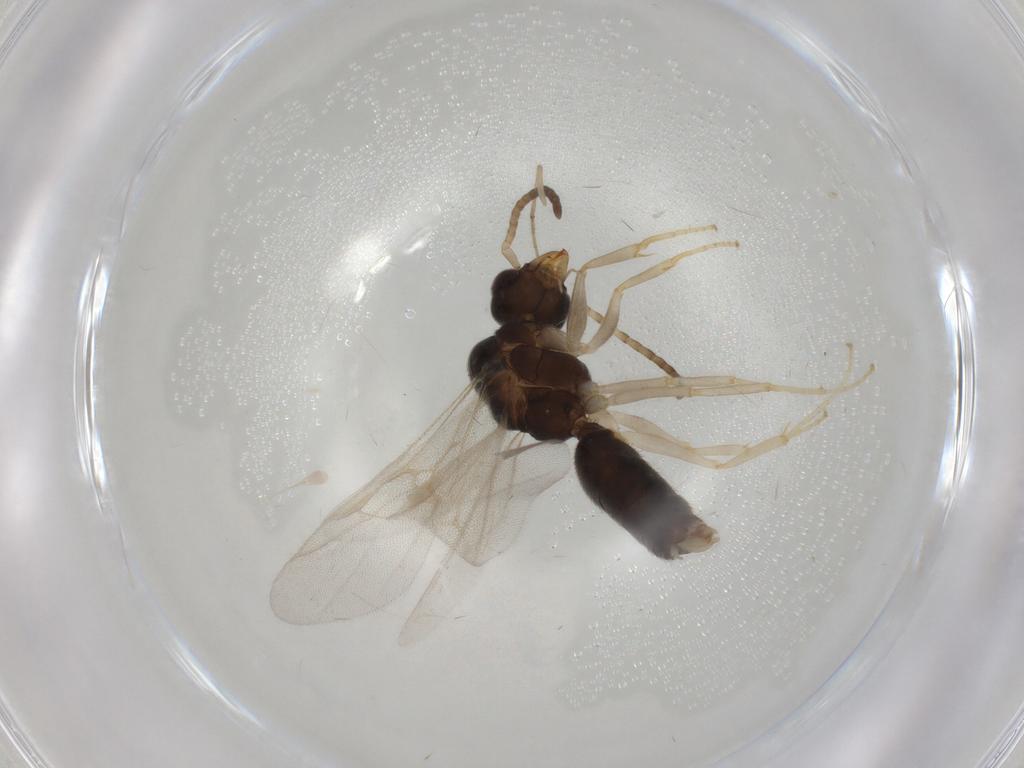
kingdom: Animalia
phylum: Arthropoda
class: Insecta
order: Hymenoptera
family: Formicidae
